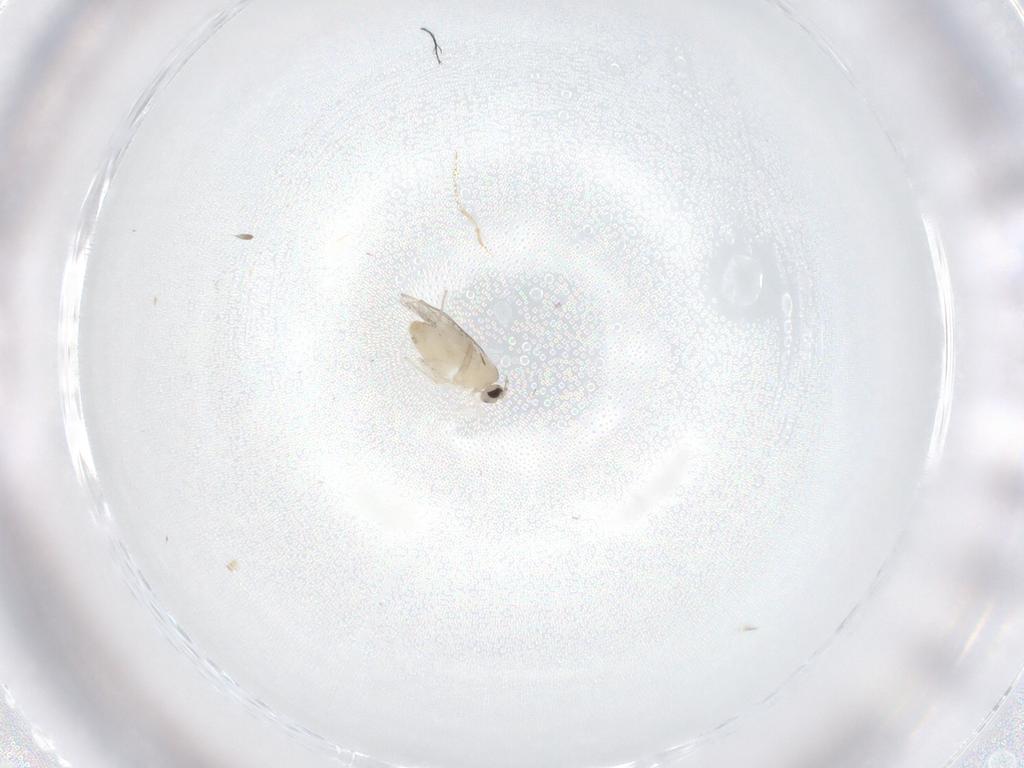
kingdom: Animalia
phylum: Arthropoda
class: Insecta
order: Diptera
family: Cecidomyiidae
